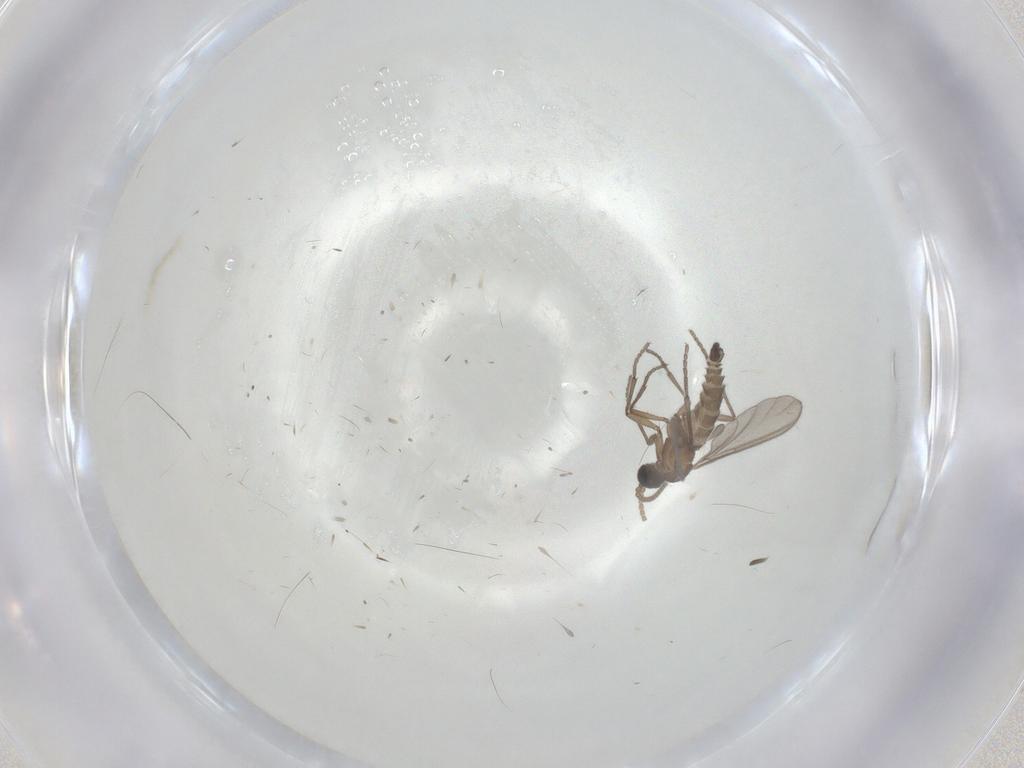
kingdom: Animalia
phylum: Arthropoda
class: Insecta
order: Diptera
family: Sciaridae
